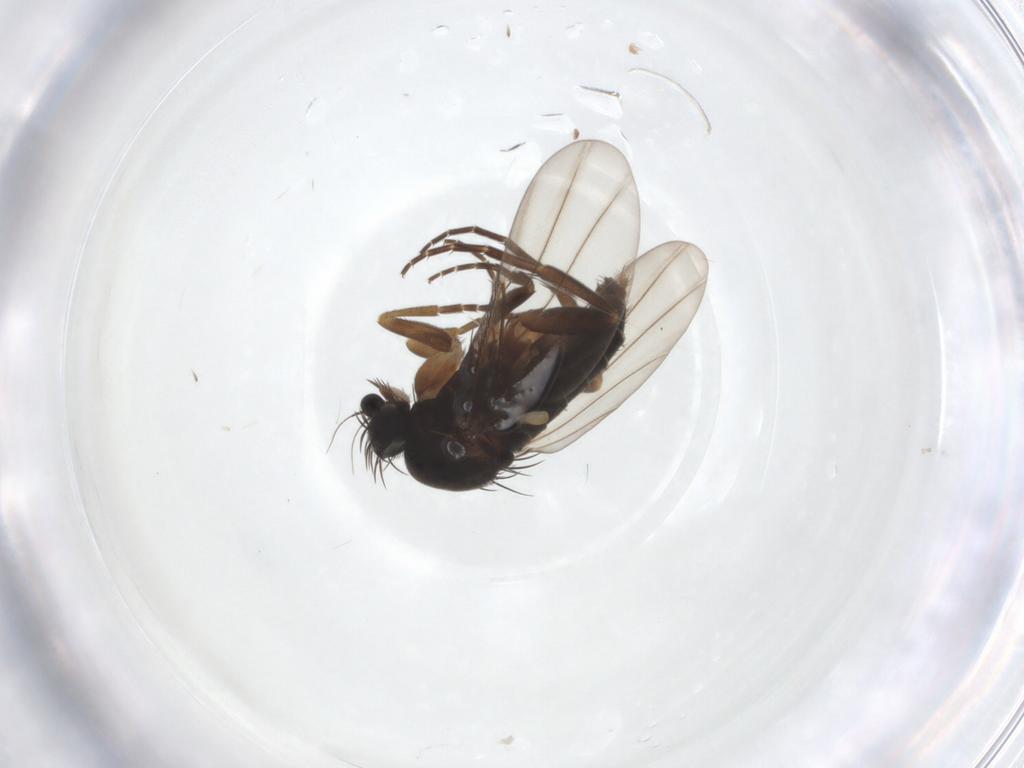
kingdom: Animalia
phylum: Arthropoda
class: Insecta
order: Diptera
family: Phoridae
